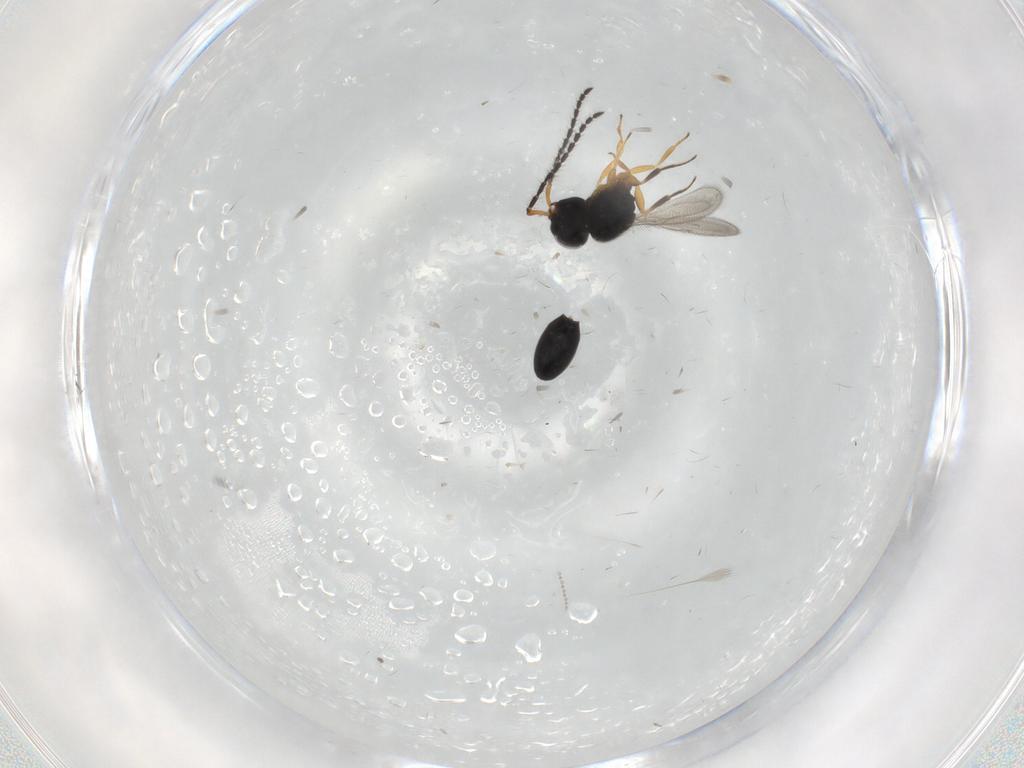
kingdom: Animalia
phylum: Arthropoda
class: Insecta
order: Hymenoptera
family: Scelionidae
